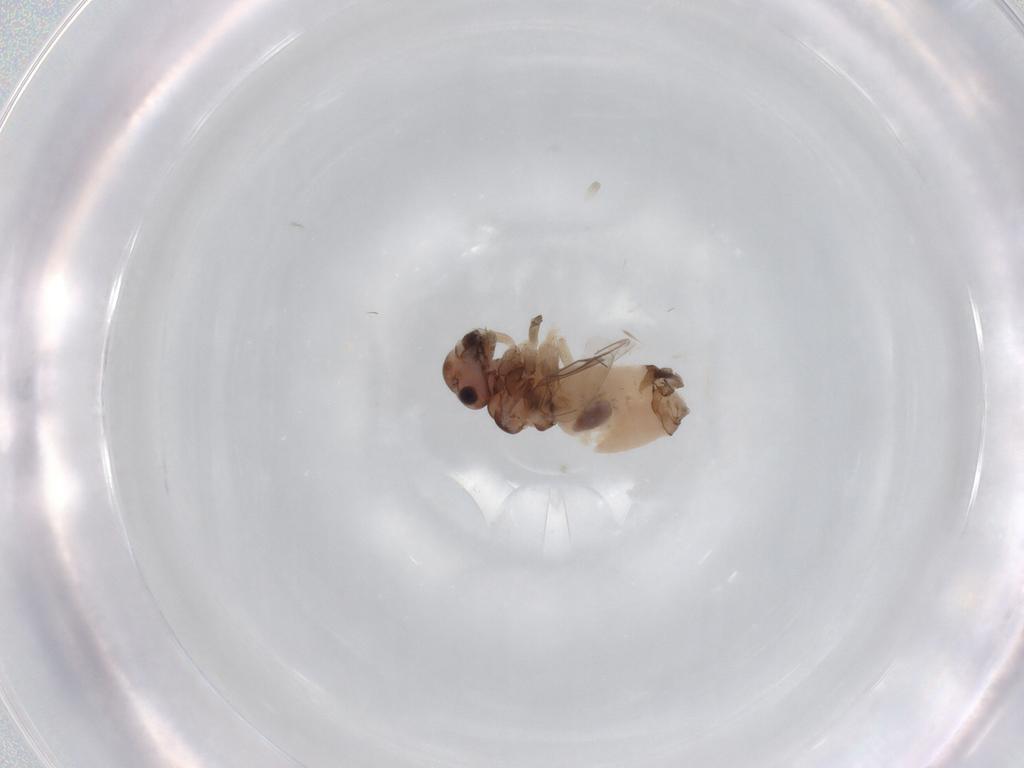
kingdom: Animalia
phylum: Arthropoda
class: Insecta
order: Psocodea
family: Peripsocidae
